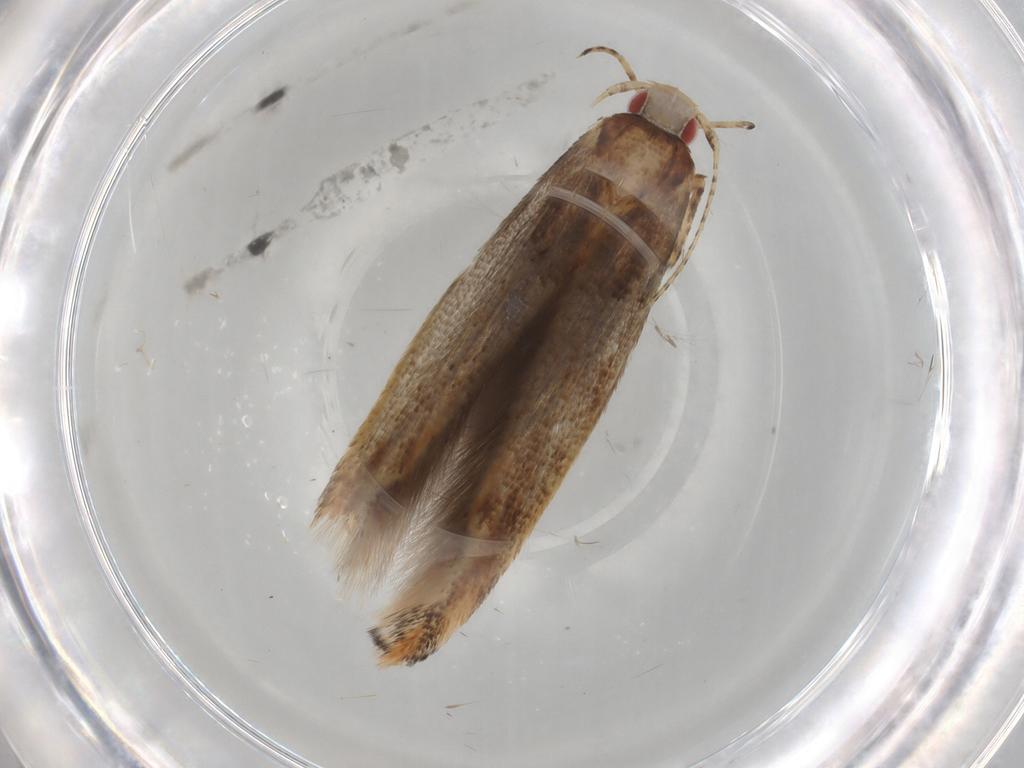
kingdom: Animalia
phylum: Arthropoda
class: Insecta
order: Lepidoptera
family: Cosmopterigidae
